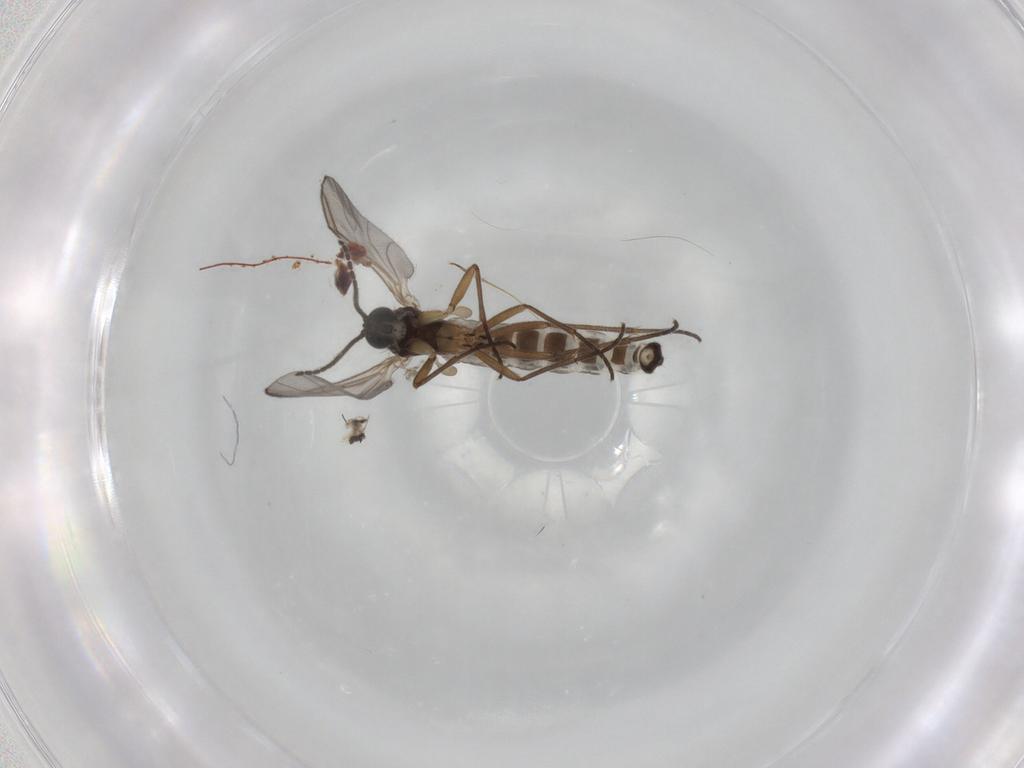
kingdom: Animalia
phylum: Arthropoda
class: Insecta
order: Diptera
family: Sciaridae
